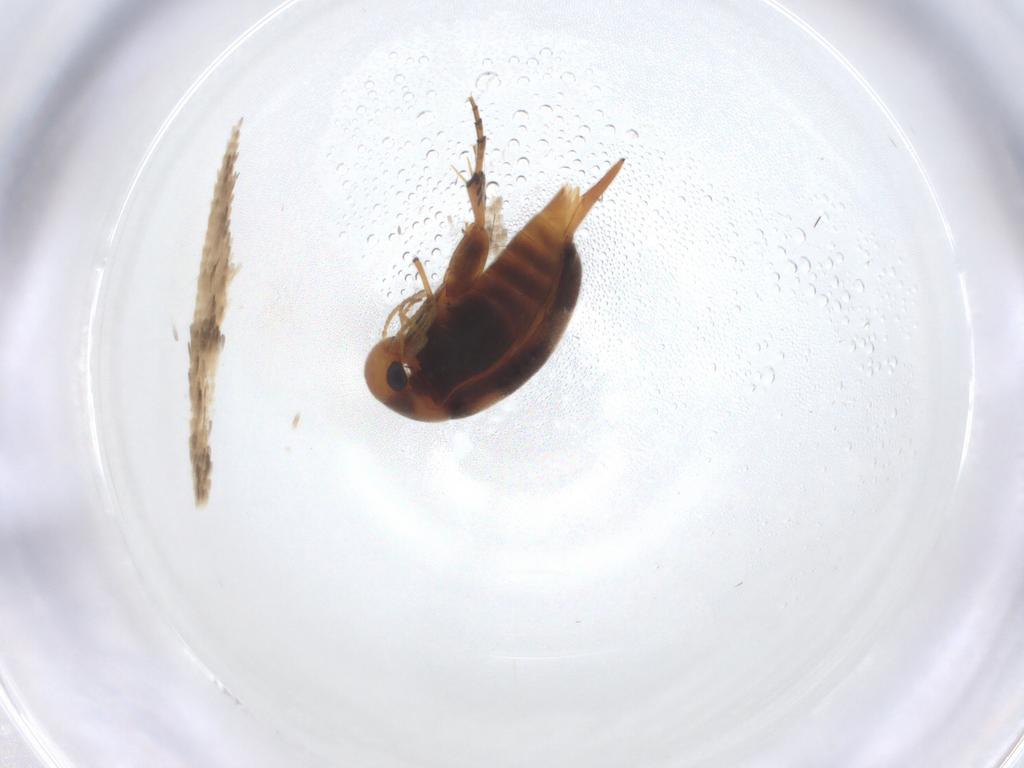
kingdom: Animalia
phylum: Arthropoda
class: Insecta
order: Coleoptera
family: Mordellidae
